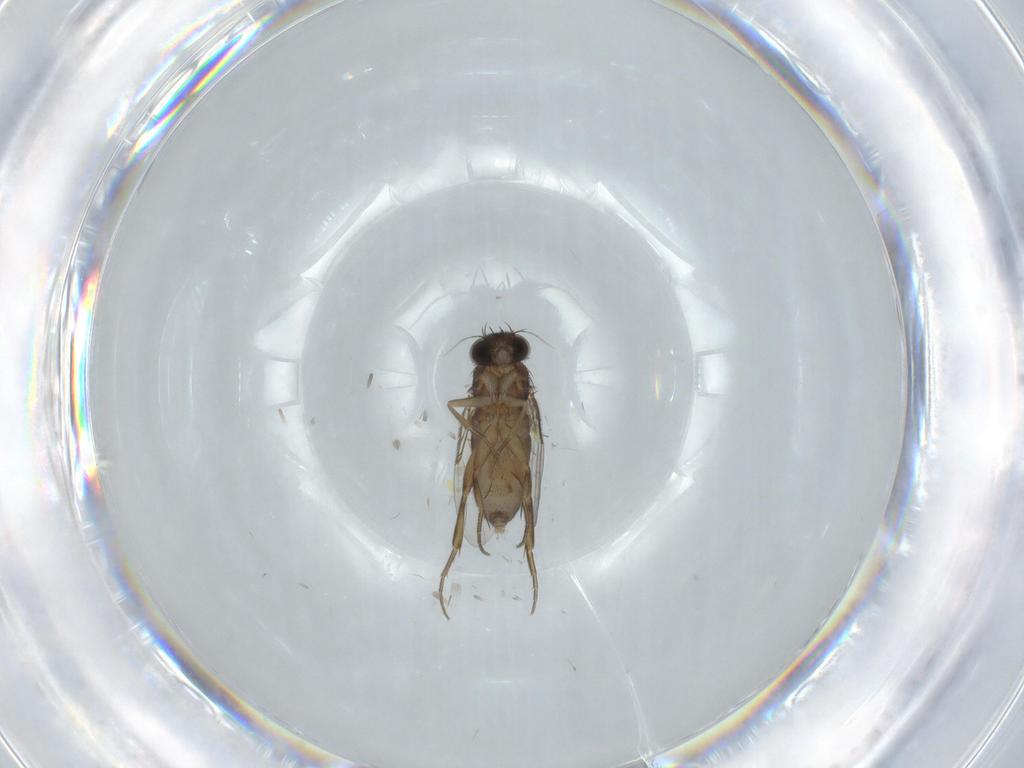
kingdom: Animalia
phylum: Arthropoda
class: Insecta
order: Diptera
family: Phoridae
